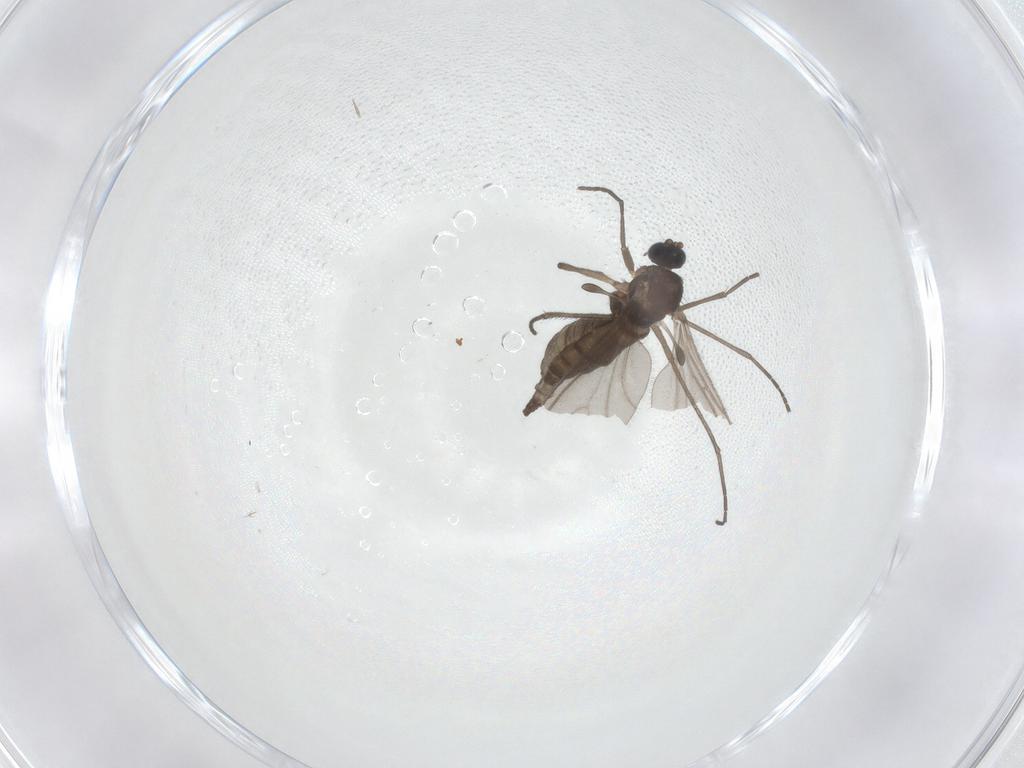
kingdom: Animalia
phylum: Arthropoda
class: Insecta
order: Diptera
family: Sciaridae
